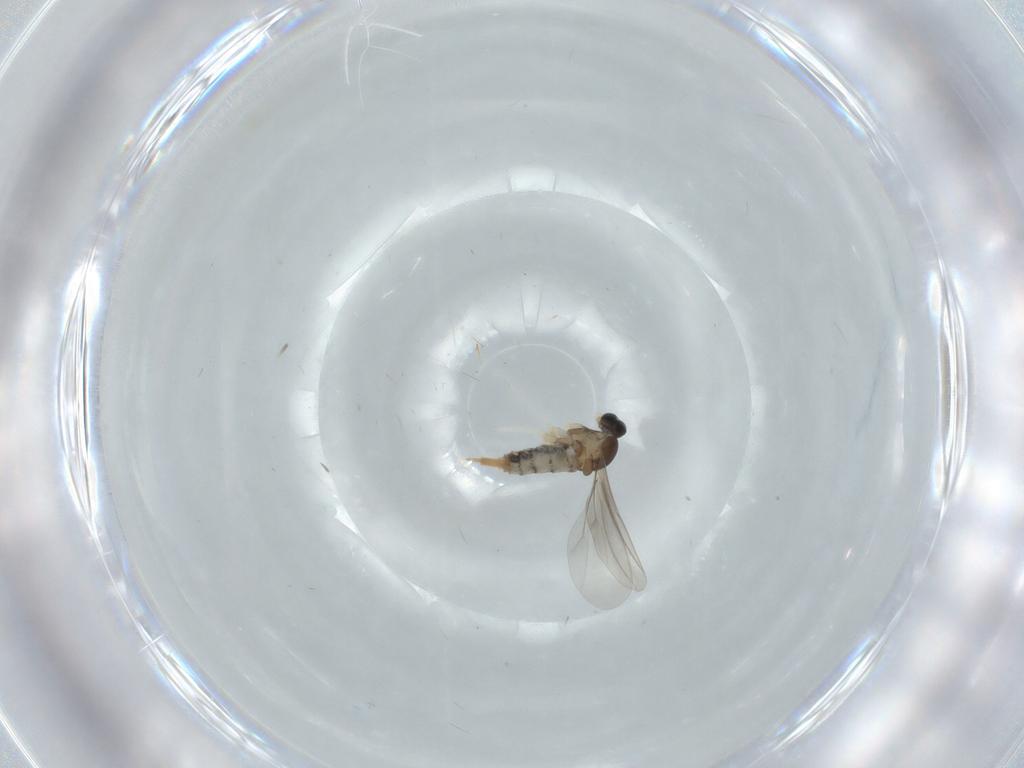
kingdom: Animalia
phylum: Arthropoda
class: Insecta
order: Diptera
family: Cecidomyiidae
